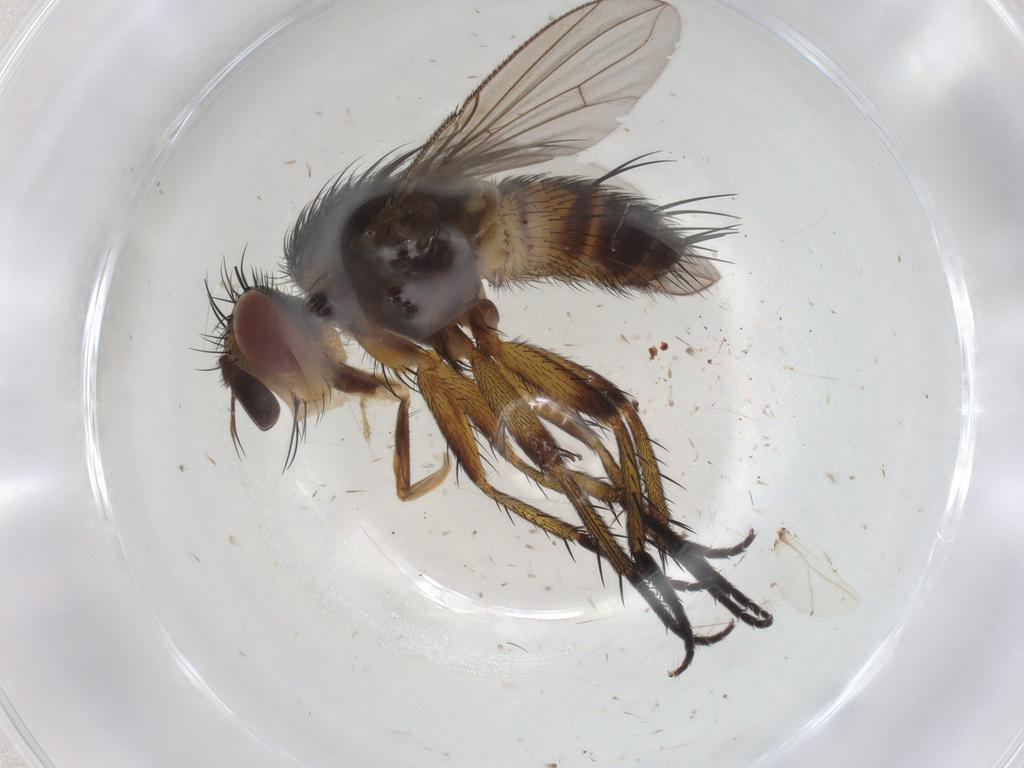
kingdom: Animalia
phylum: Arthropoda
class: Insecta
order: Diptera
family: Tachinidae
